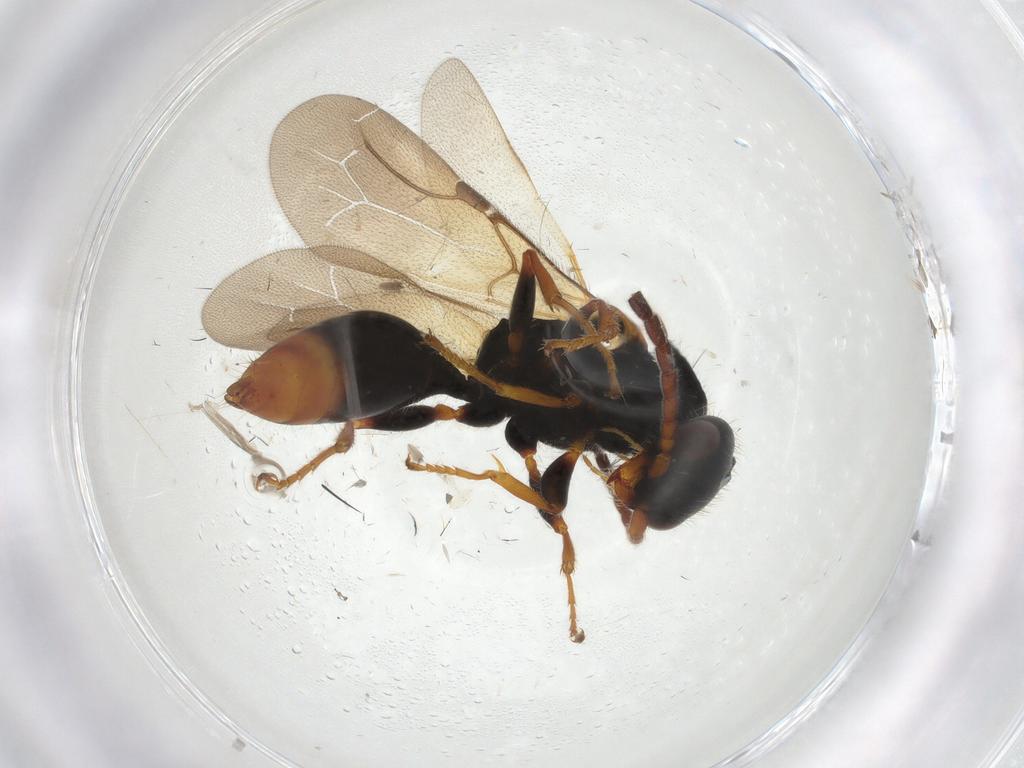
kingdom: Animalia
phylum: Arthropoda
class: Insecta
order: Hymenoptera
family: Bethylidae
